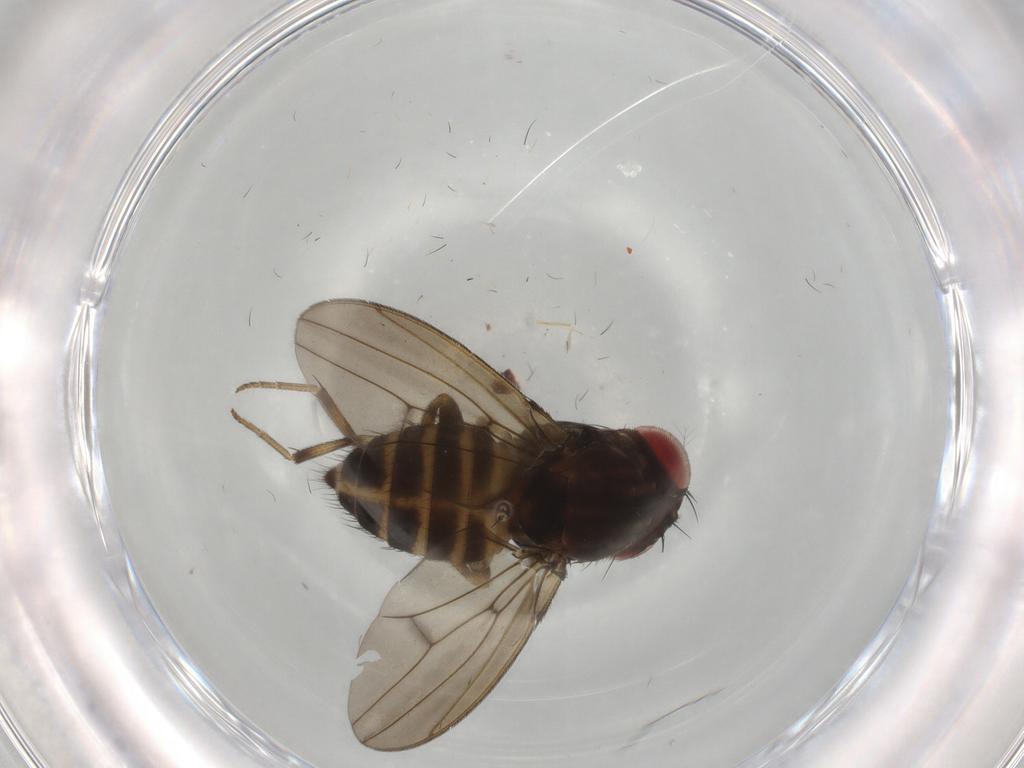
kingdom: Animalia
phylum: Arthropoda
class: Insecta
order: Diptera
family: Drosophilidae
